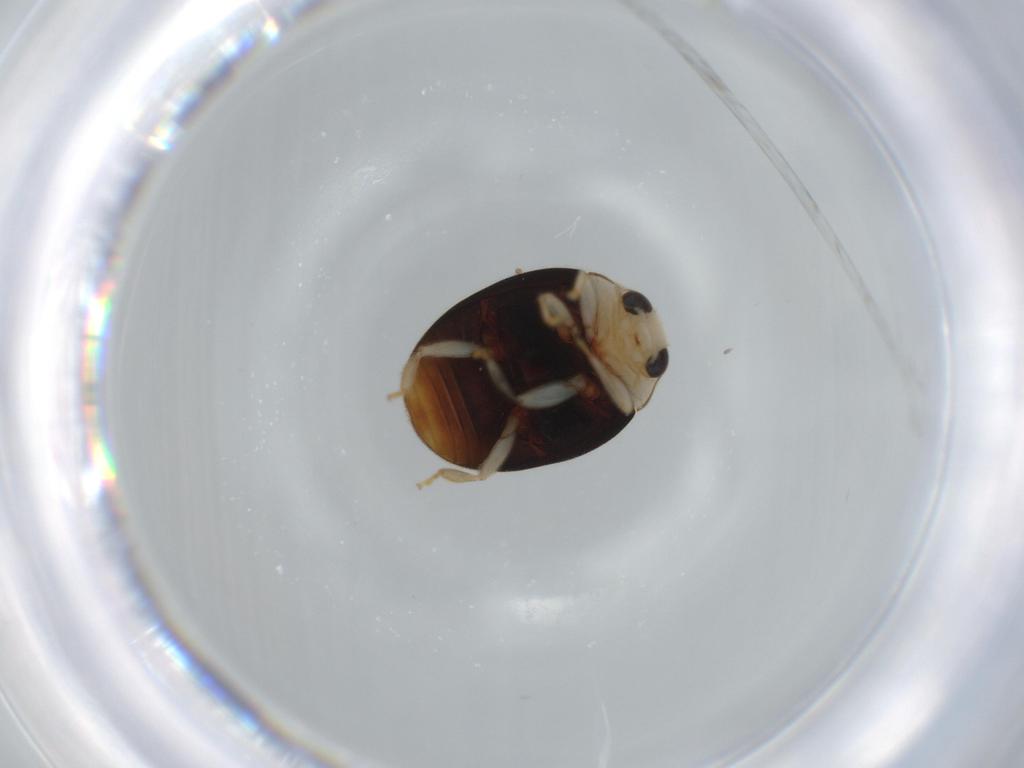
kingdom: Animalia
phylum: Arthropoda
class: Insecta
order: Coleoptera
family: Coccinellidae
